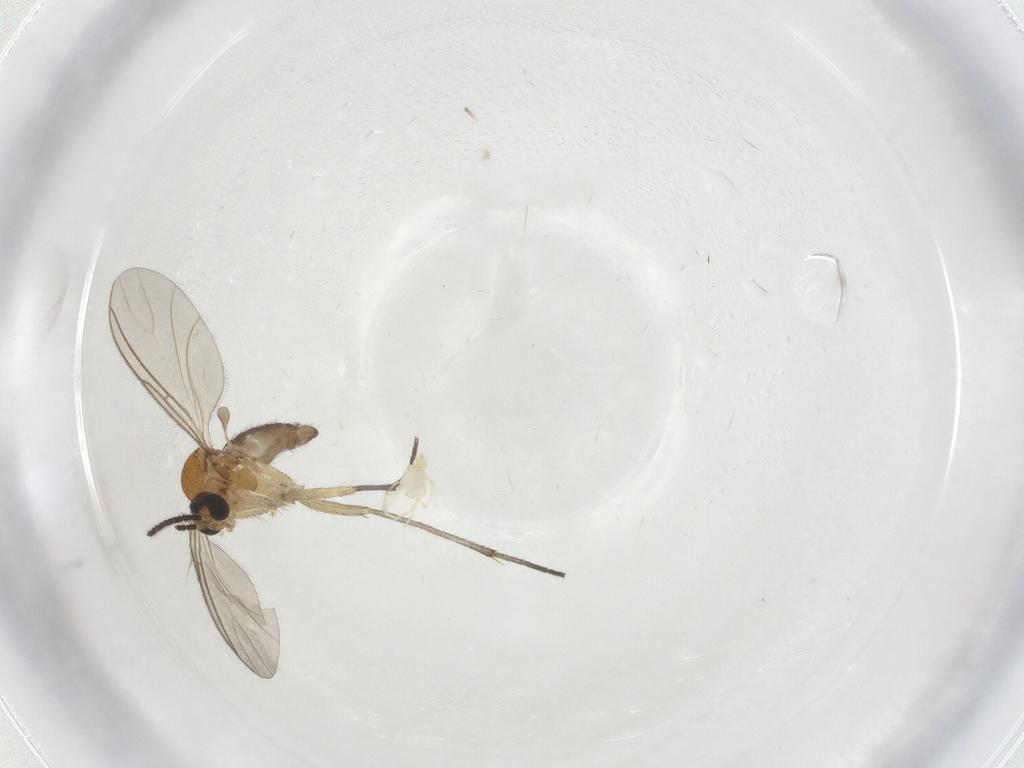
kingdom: Animalia
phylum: Arthropoda
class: Insecta
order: Diptera
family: Sciaridae
